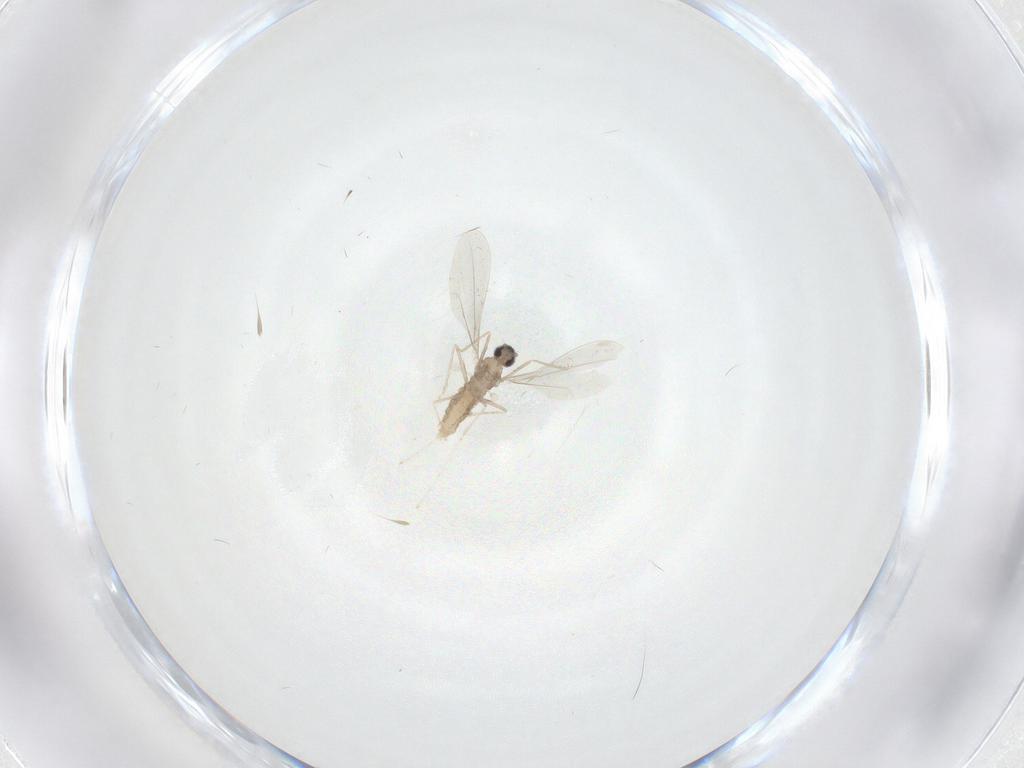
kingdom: Animalia
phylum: Arthropoda
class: Insecta
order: Diptera
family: Cecidomyiidae
